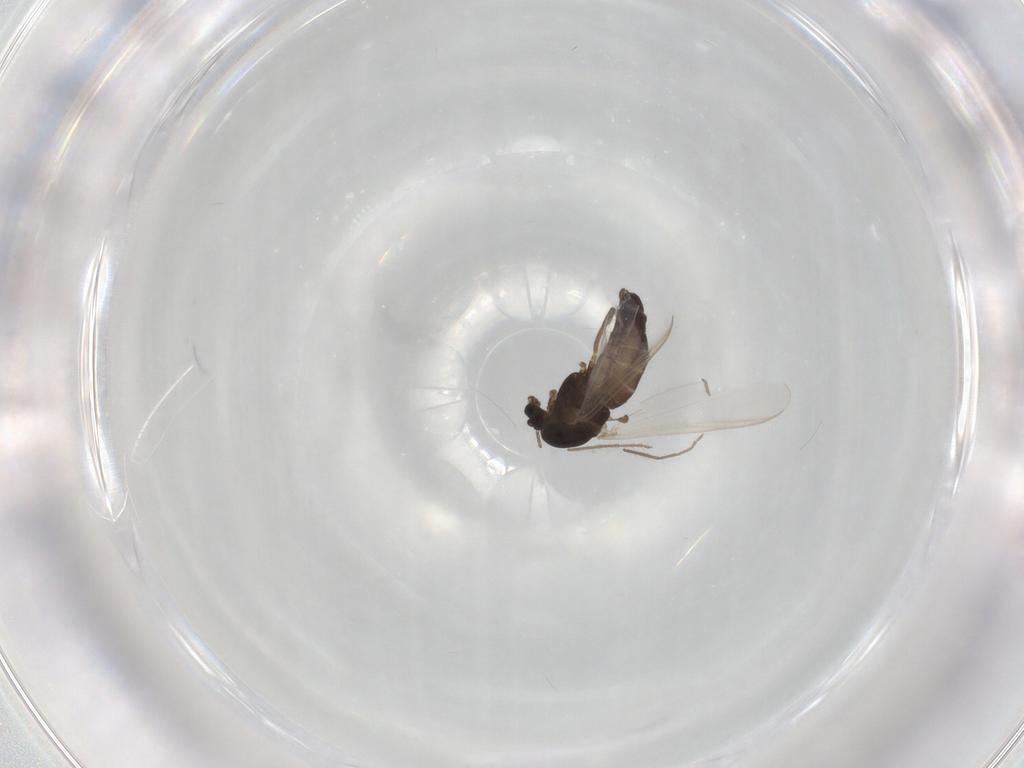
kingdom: Animalia
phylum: Arthropoda
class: Insecta
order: Diptera
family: Chironomidae
